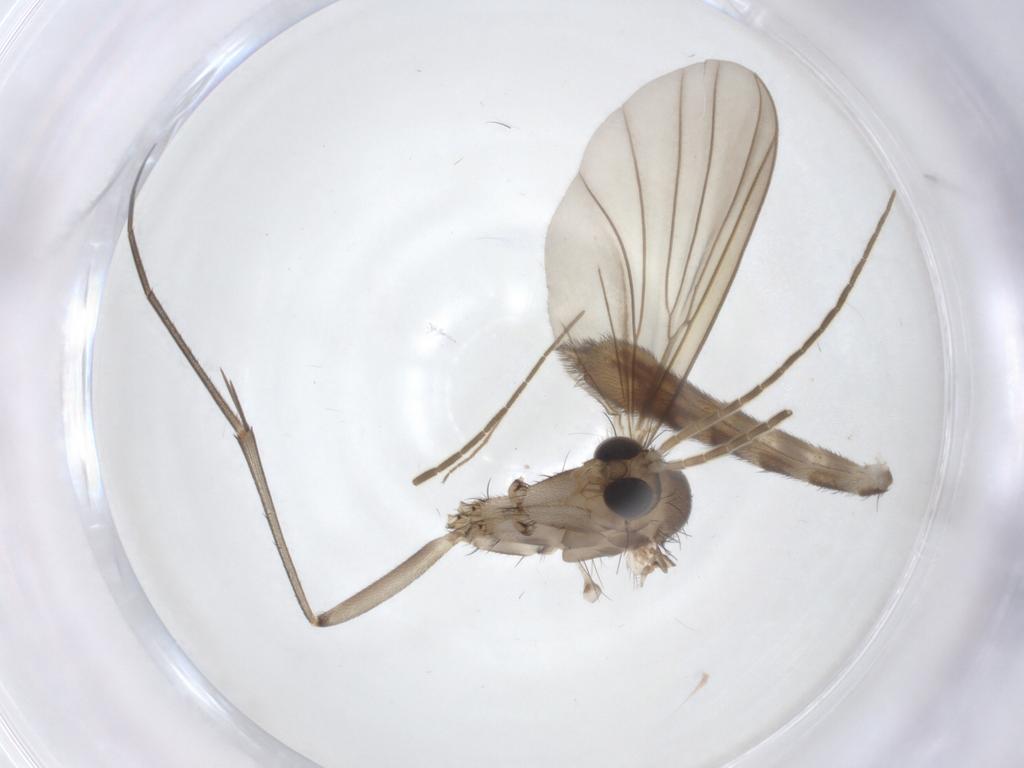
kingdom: Animalia
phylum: Arthropoda
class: Insecta
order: Diptera
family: Chironomidae
